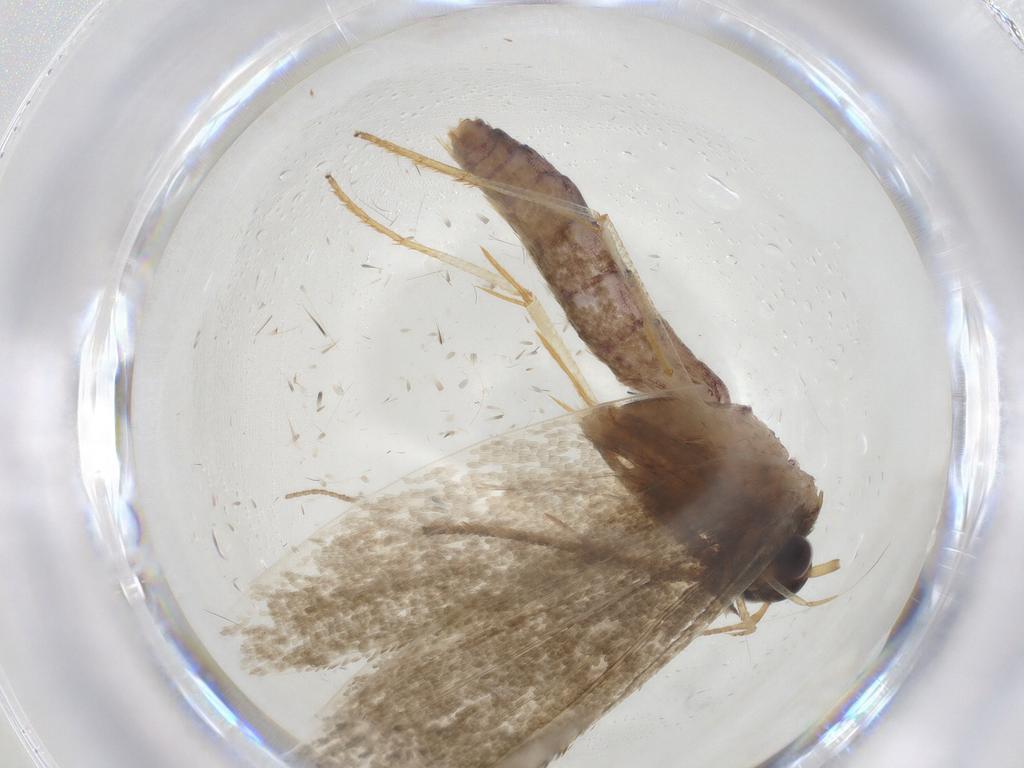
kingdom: Animalia
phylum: Arthropoda
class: Insecta
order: Lepidoptera
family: Blastobasidae
